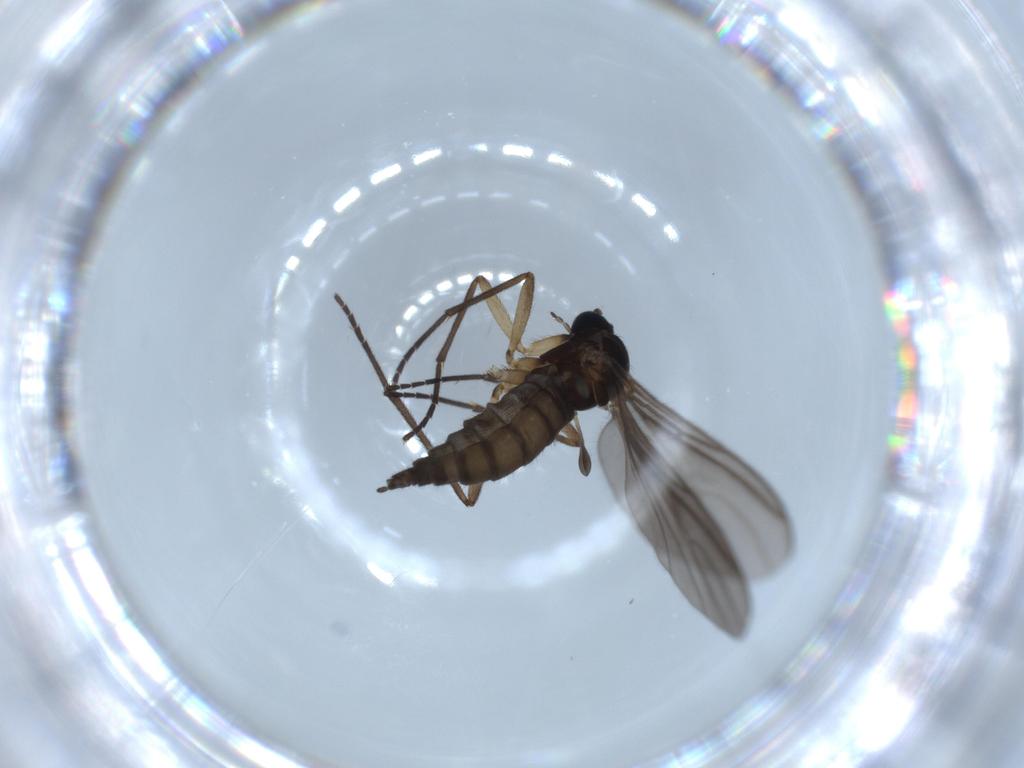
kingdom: Animalia
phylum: Arthropoda
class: Insecta
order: Diptera
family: Sciaridae
